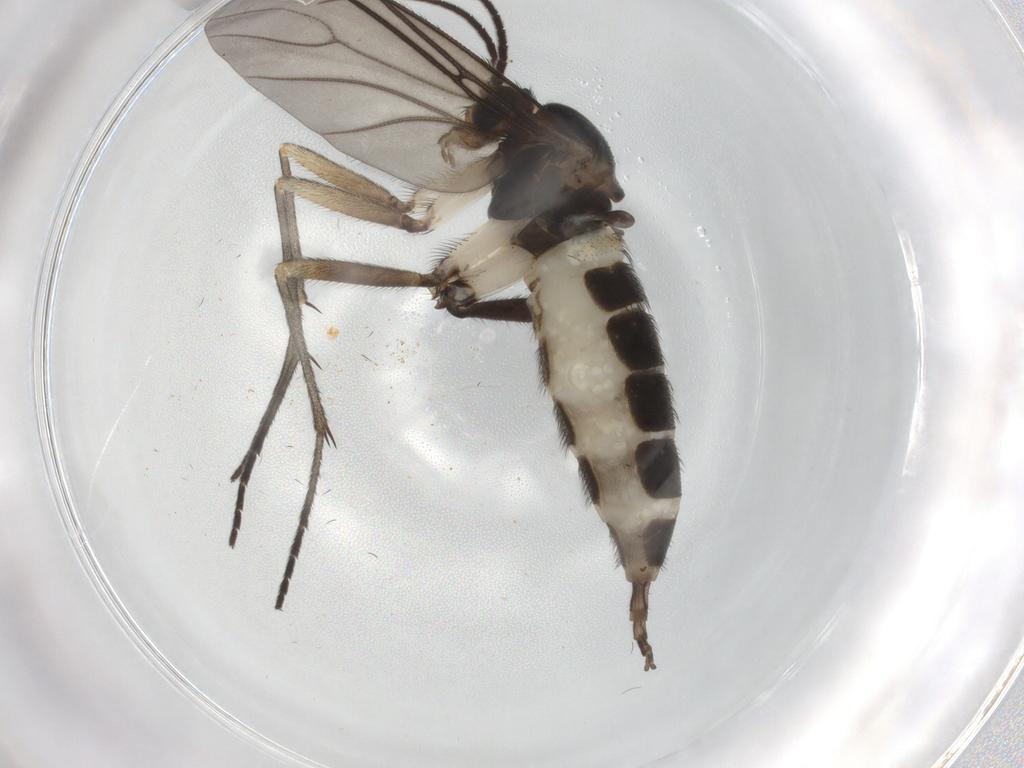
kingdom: Animalia
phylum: Arthropoda
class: Insecta
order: Diptera
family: Sciaridae
